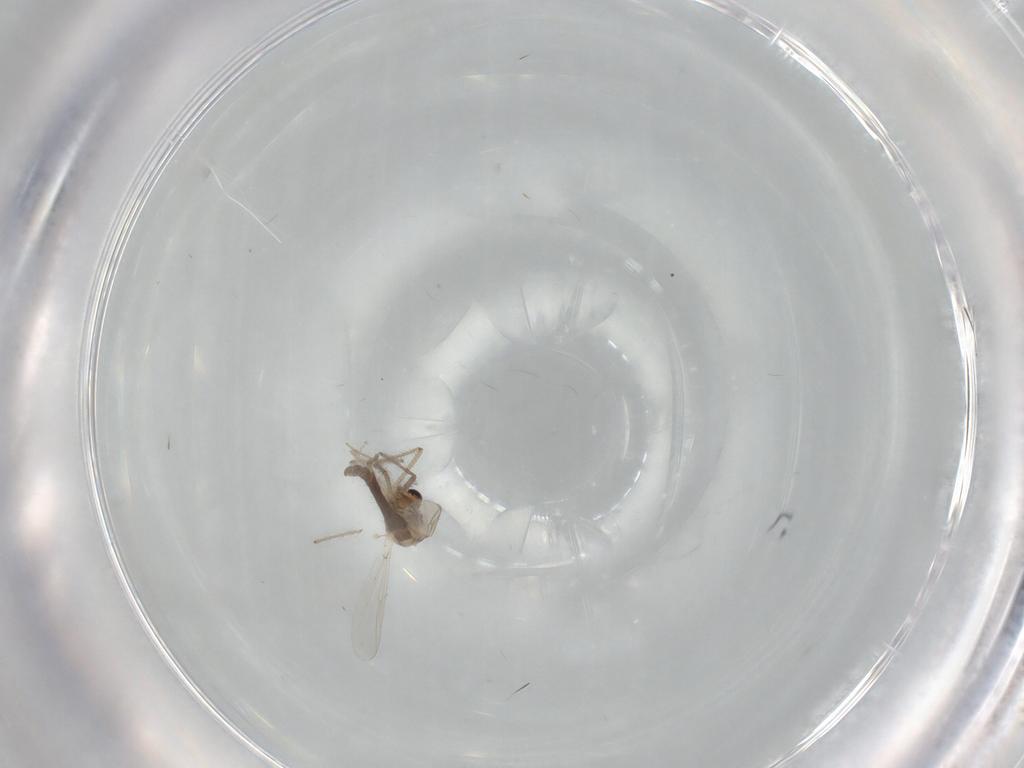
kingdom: Animalia
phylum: Arthropoda
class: Insecta
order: Diptera
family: Chironomidae
